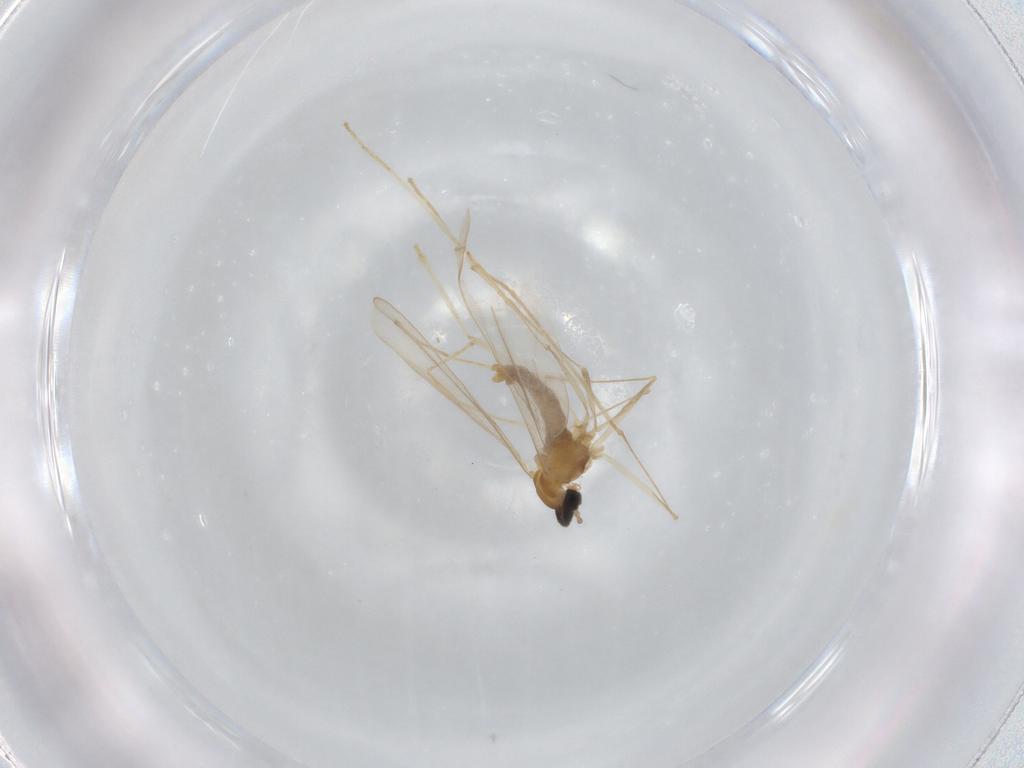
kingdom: Animalia
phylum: Arthropoda
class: Insecta
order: Diptera
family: Cecidomyiidae
